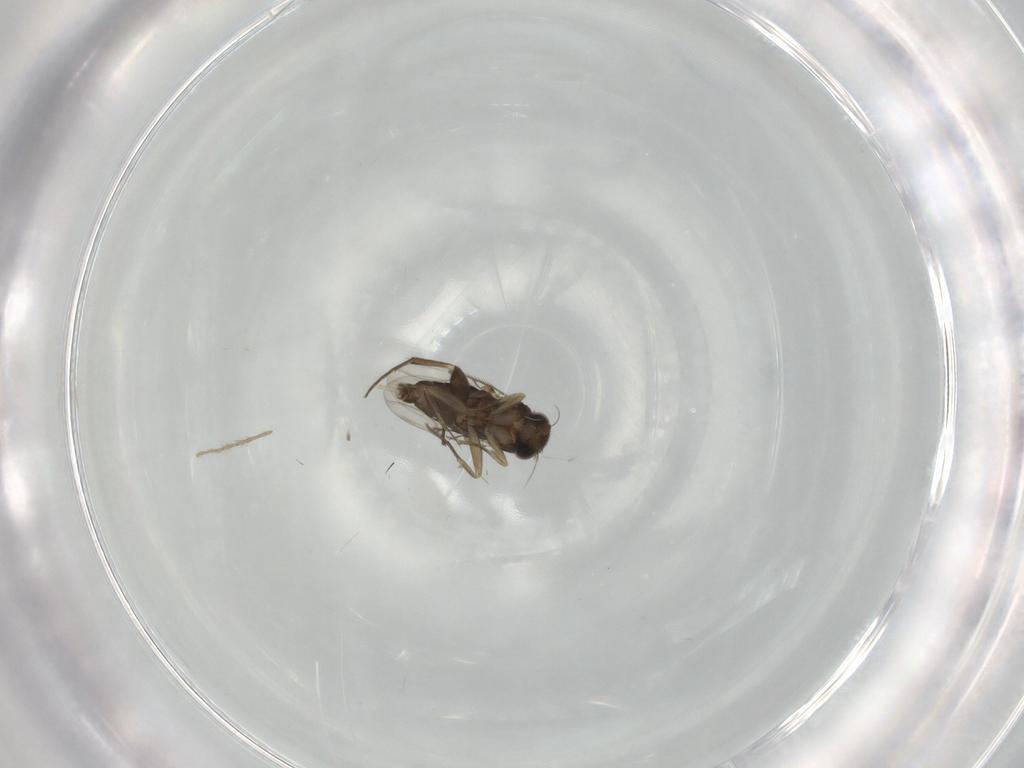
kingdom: Animalia
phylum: Arthropoda
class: Insecta
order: Diptera
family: Phoridae
